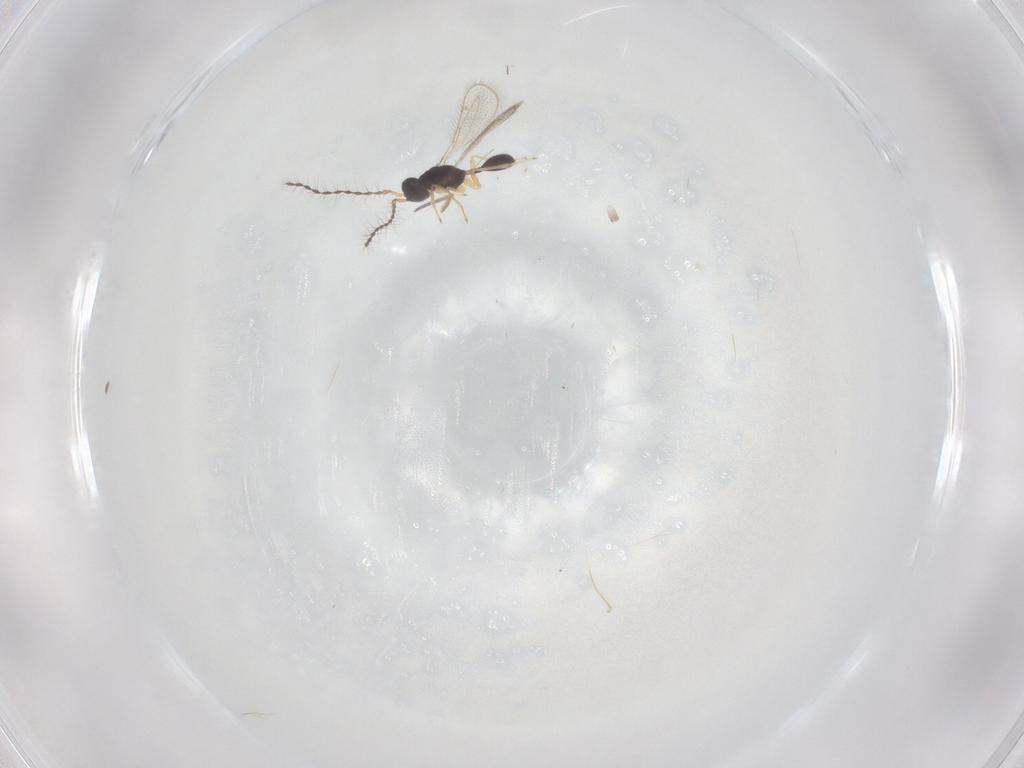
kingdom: Animalia
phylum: Arthropoda
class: Insecta
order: Hymenoptera
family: Pteromalidae
